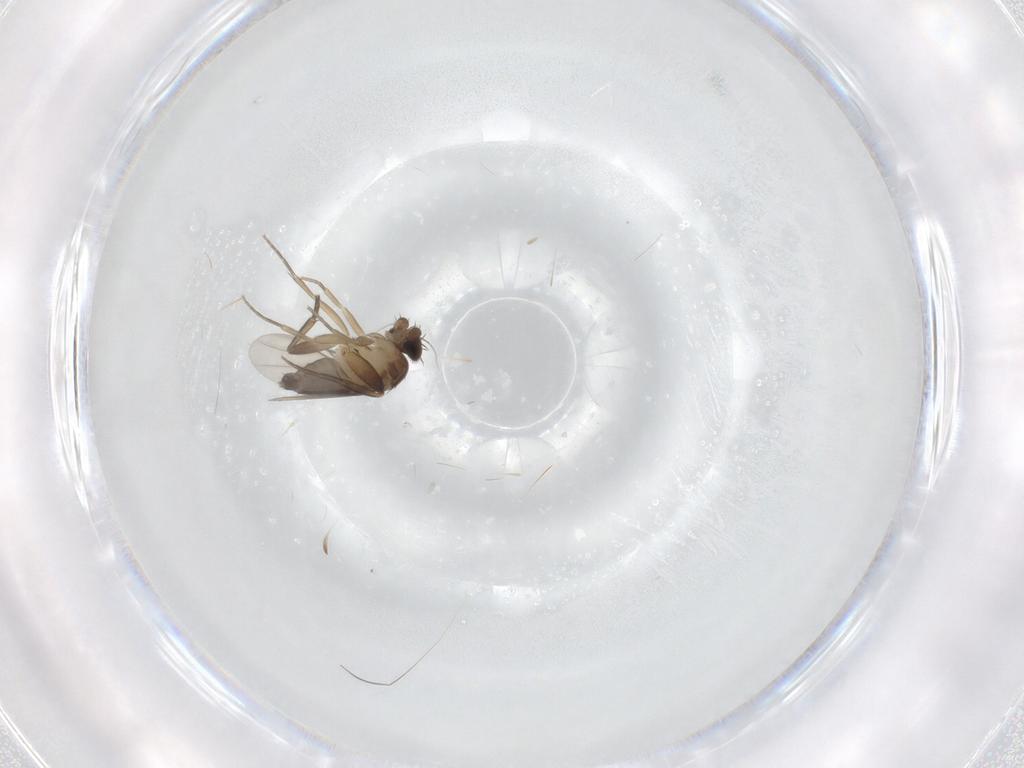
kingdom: Animalia
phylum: Arthropoda
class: Insecta
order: Diptera
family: Phoridae
